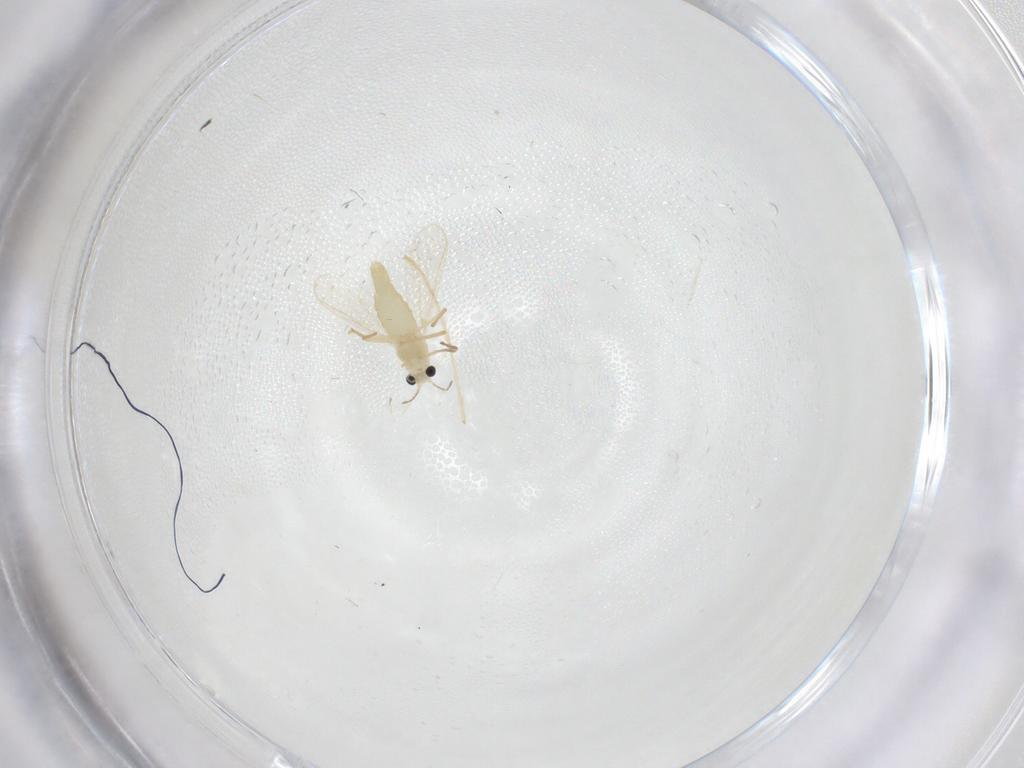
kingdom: Animalia
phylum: Arthropoda
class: Insecta
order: Diptera
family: Chironomidae
